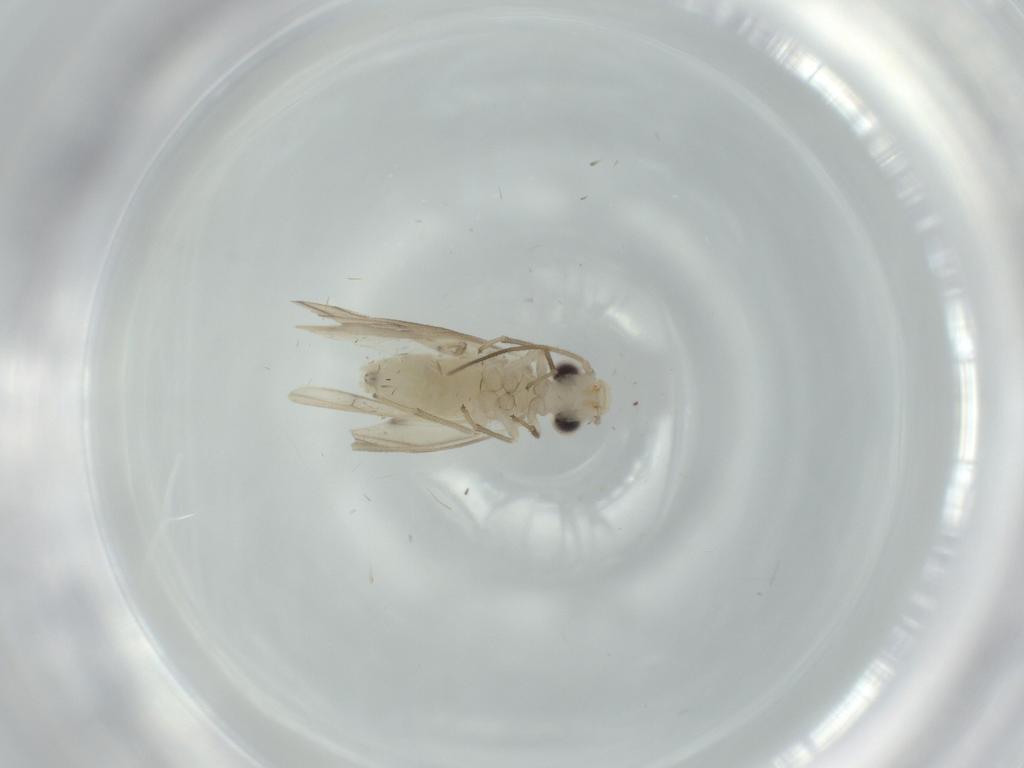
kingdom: Animalia
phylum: Arthropoda
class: Insecta
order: Psocodea
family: Caeciliusidae
